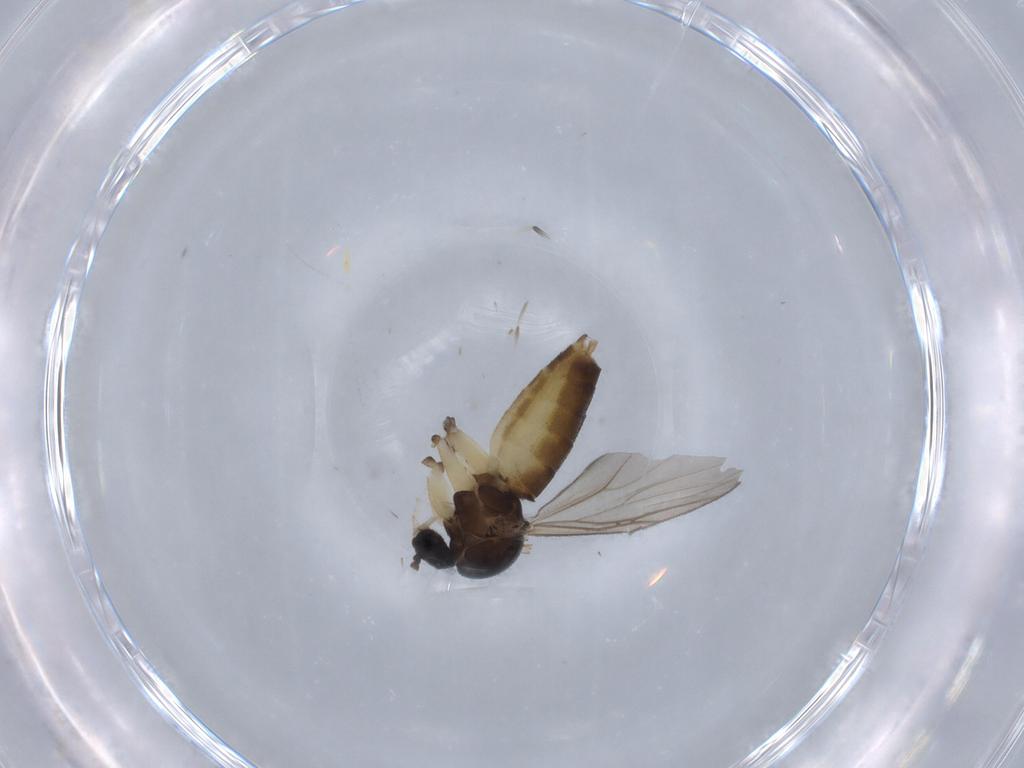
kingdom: Animalia
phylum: Arthropoda
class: Insecta
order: Diptera
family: Stratiomyidae
